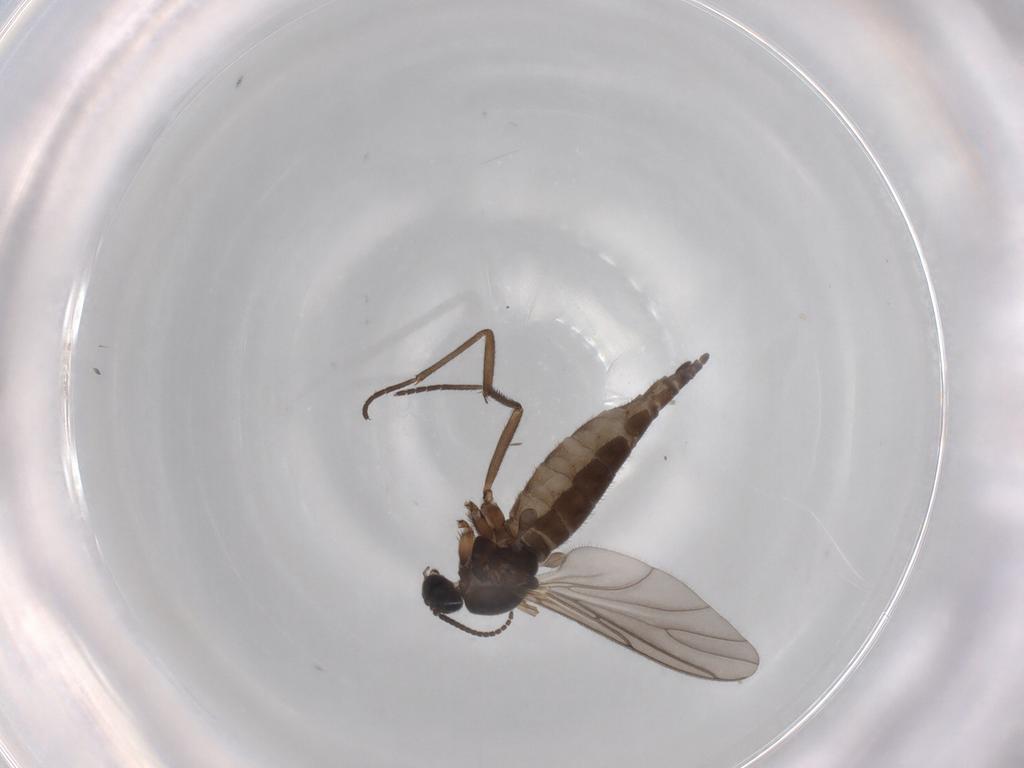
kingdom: Animalia
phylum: Arthropoda
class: Insecta
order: Diptera
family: Sciaridae
